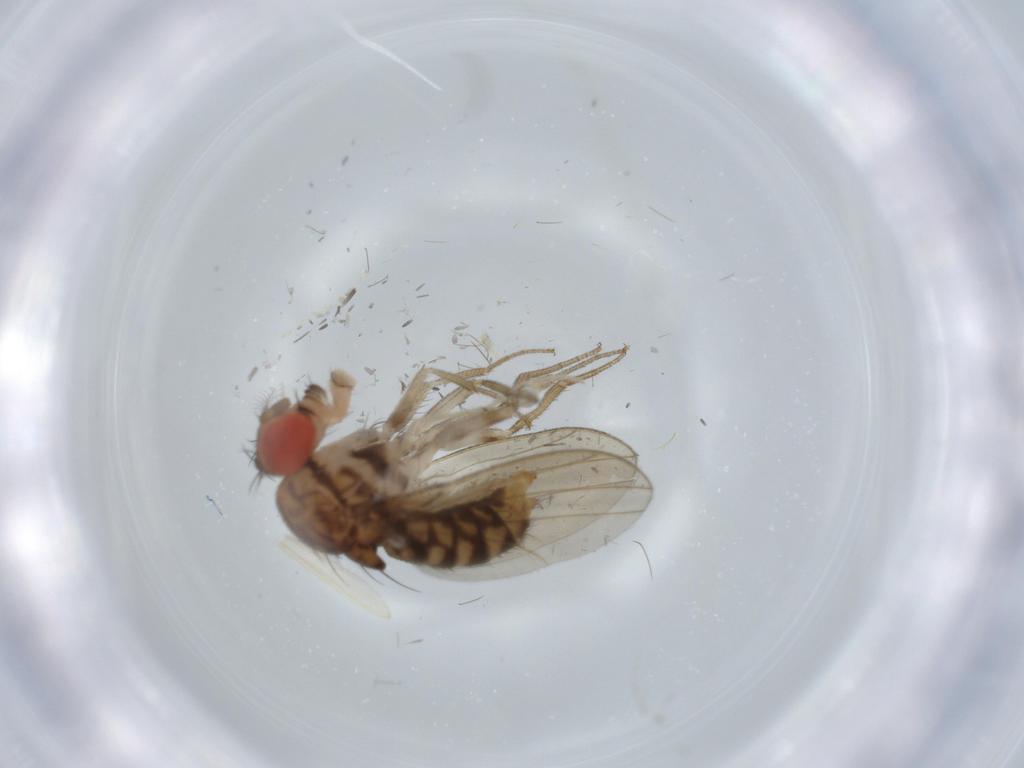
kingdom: Animalia
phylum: Arthropoda
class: Insecta
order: Diptera
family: Drosophilidae
